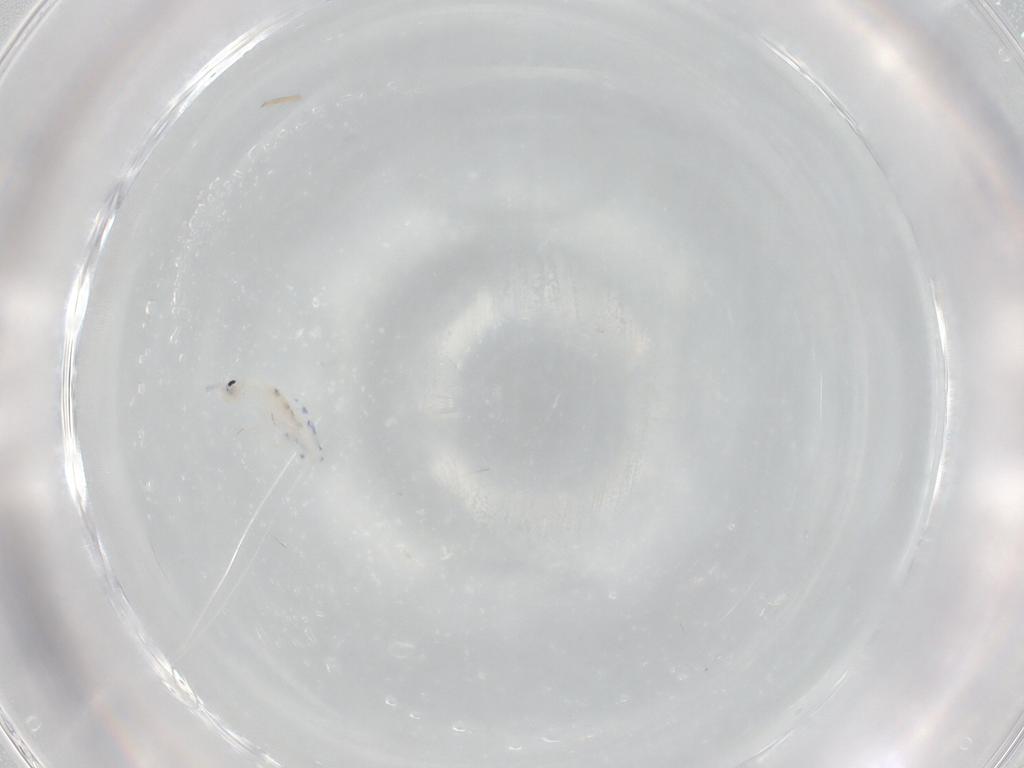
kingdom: Animalia
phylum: Arthropoda
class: Collembola
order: Entomobryomorpha
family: Entomobryidae
